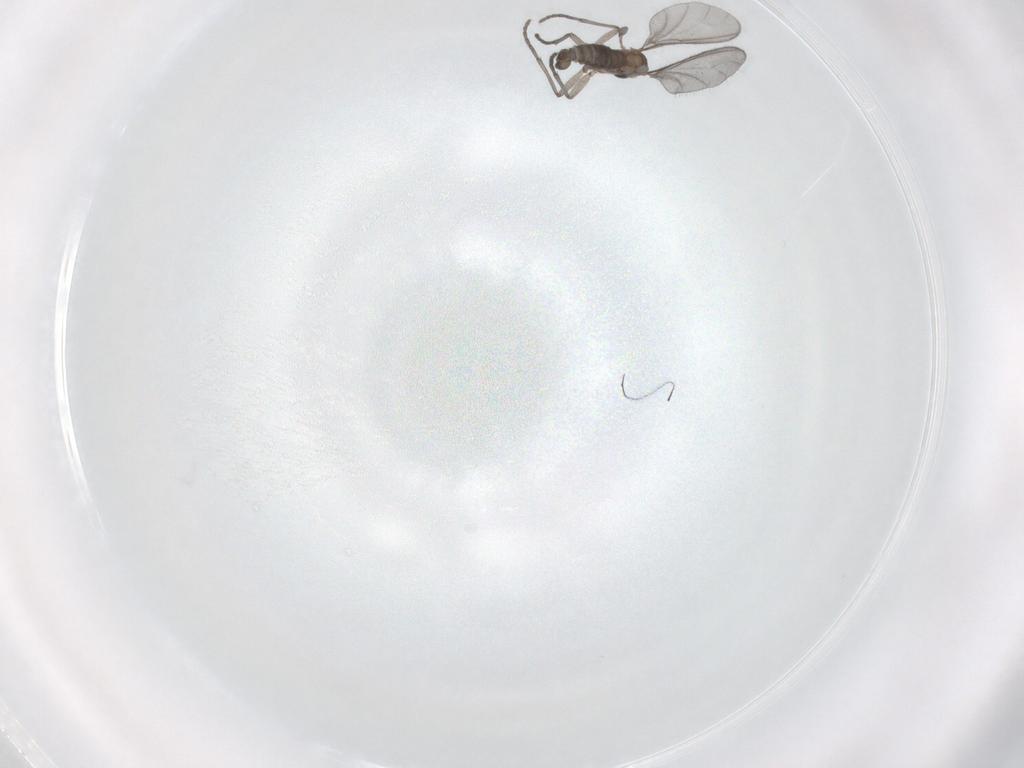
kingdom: Animalia
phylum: Arthropoda
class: Insecta
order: Diptera
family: Sciaridae
